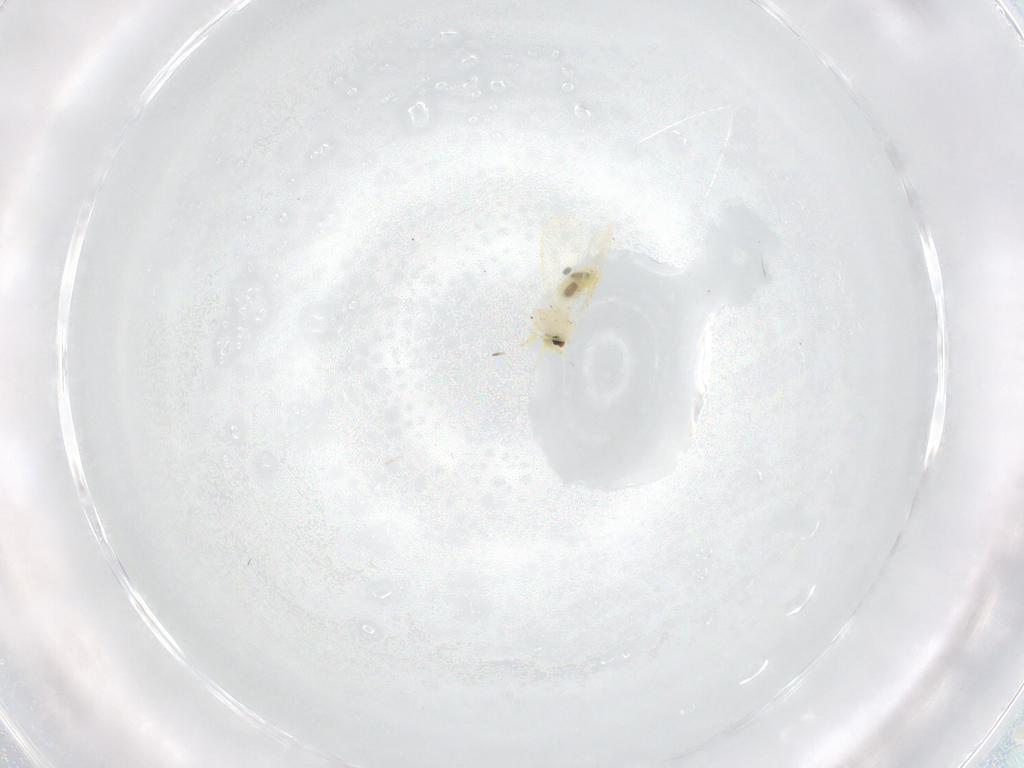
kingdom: Animalia
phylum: Arthropoda
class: Insecta
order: Hemiptera
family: Aleyrodidae
